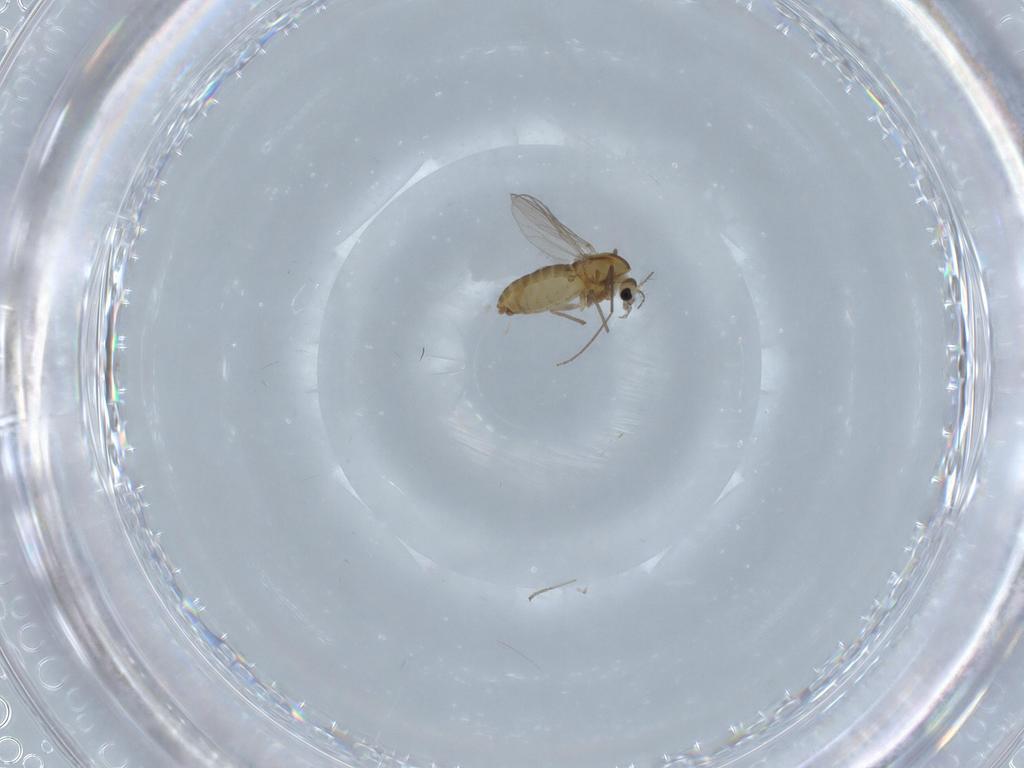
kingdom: Animalia
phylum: Arthropoda
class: Insecta
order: Diptera
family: Chironomidae
